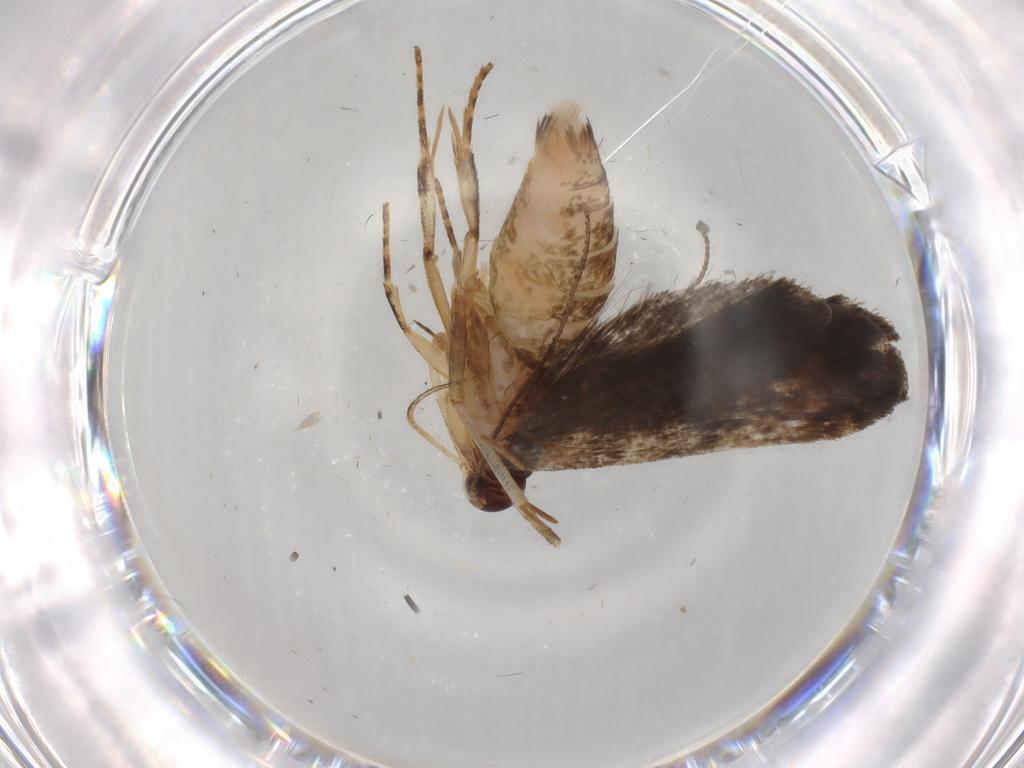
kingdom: Animalia
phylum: Arthropoda
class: Insecta
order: Lepidoptera
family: Gelechiidae
